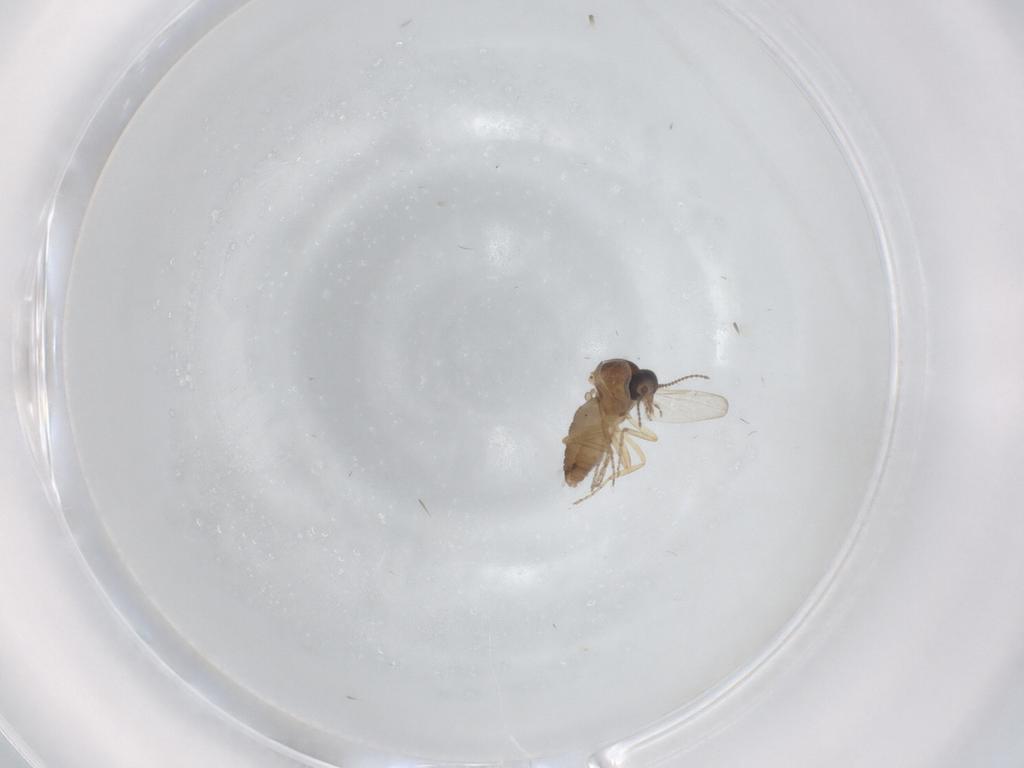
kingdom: Animalia
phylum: Arthropoda
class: Insecta
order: Diptera
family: Ceratopogonidae
